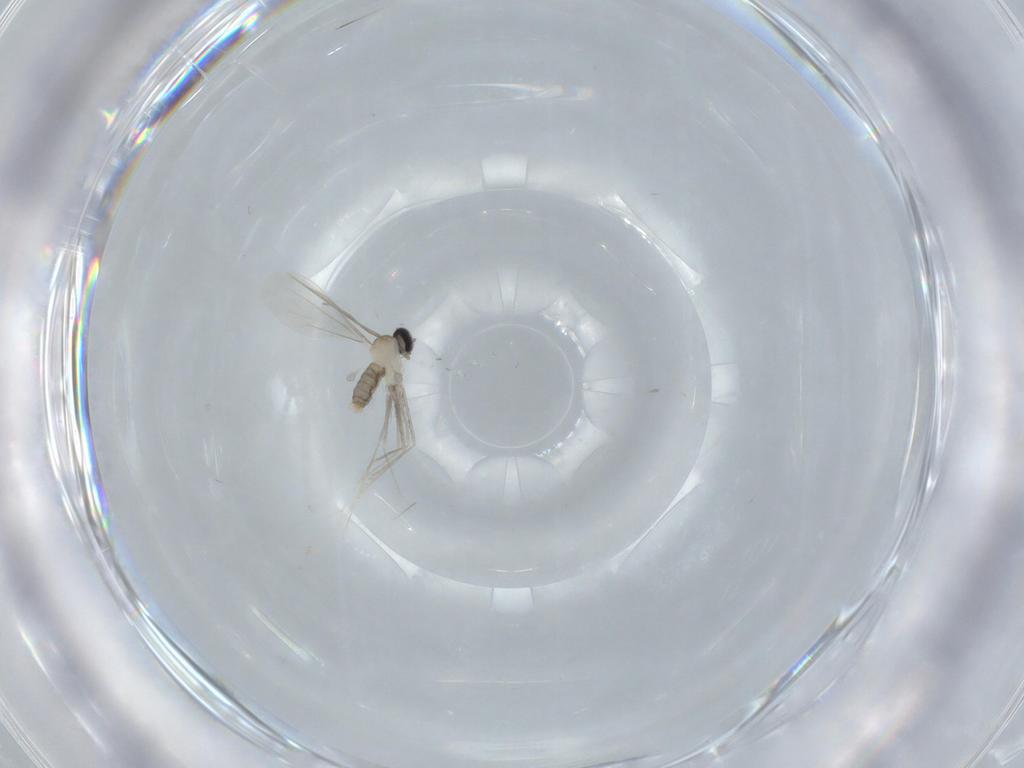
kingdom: Animalia
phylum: Arthropoda
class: Insecta
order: Diptera
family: Cecidomyiidae
